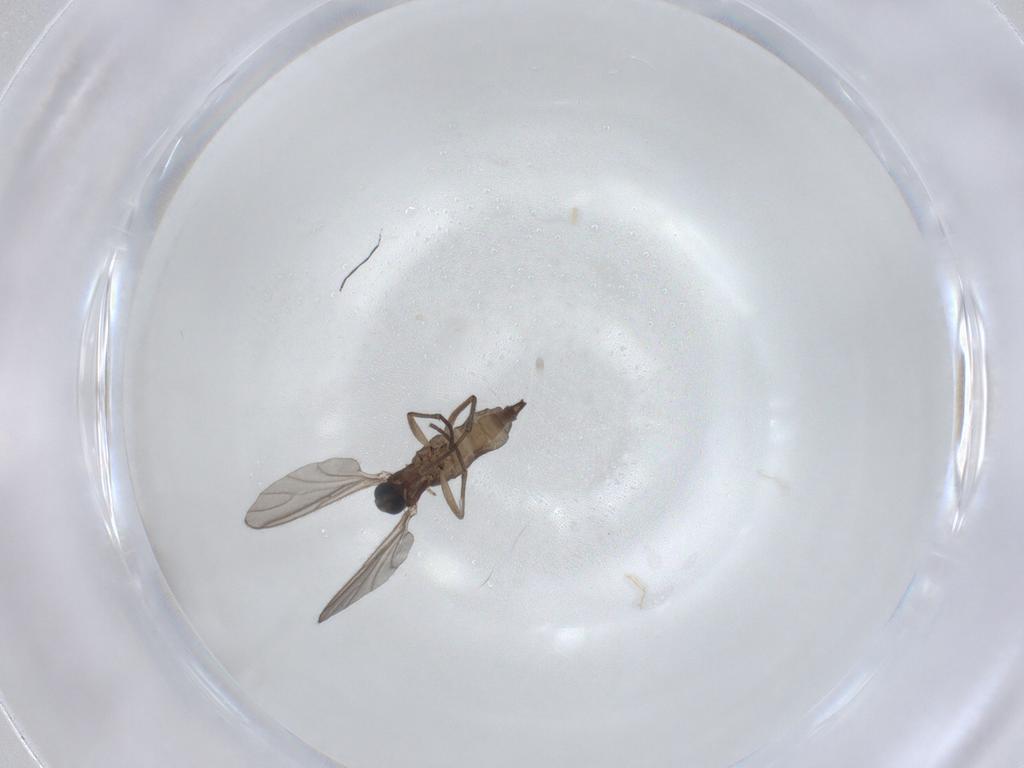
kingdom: Animalia
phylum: Arthropoda
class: Insecta
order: Diptera
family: Sciaridae
